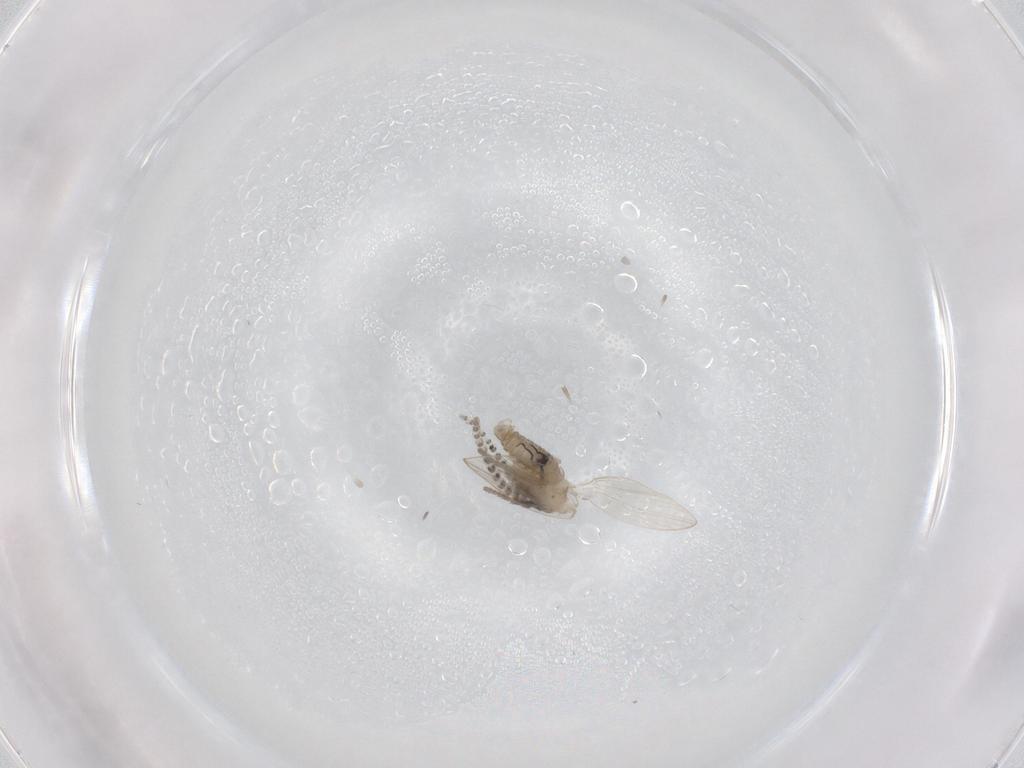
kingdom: Animalia
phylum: Arthropoda
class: Insecta
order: Diptera
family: Psychodidae
